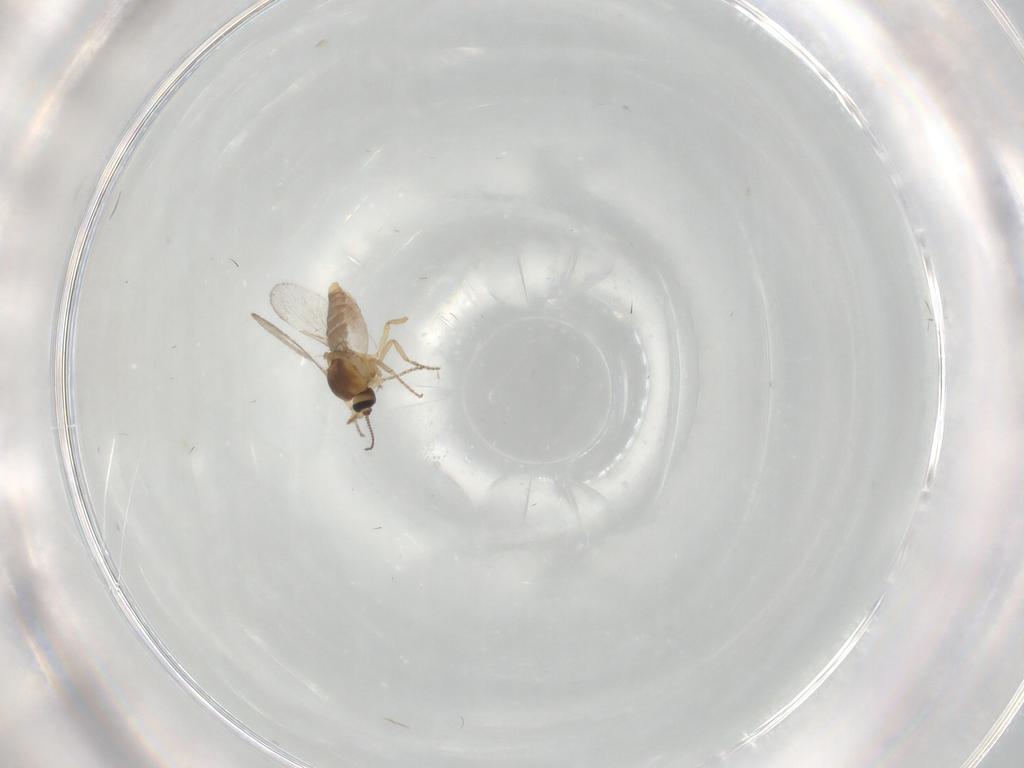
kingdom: Animalia
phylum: Arthropoda
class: Insecta
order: Diptera
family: Ceratopogonidae
